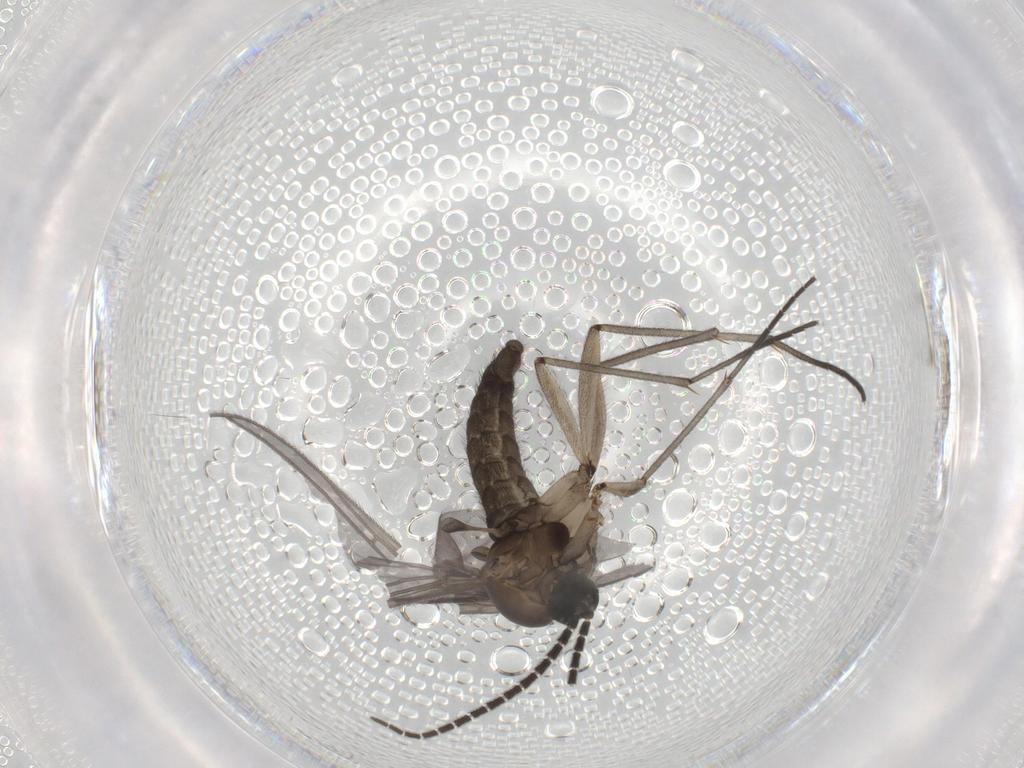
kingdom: Animalia
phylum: Arthropoda
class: Insecta
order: Diptera
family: Sciaridae
